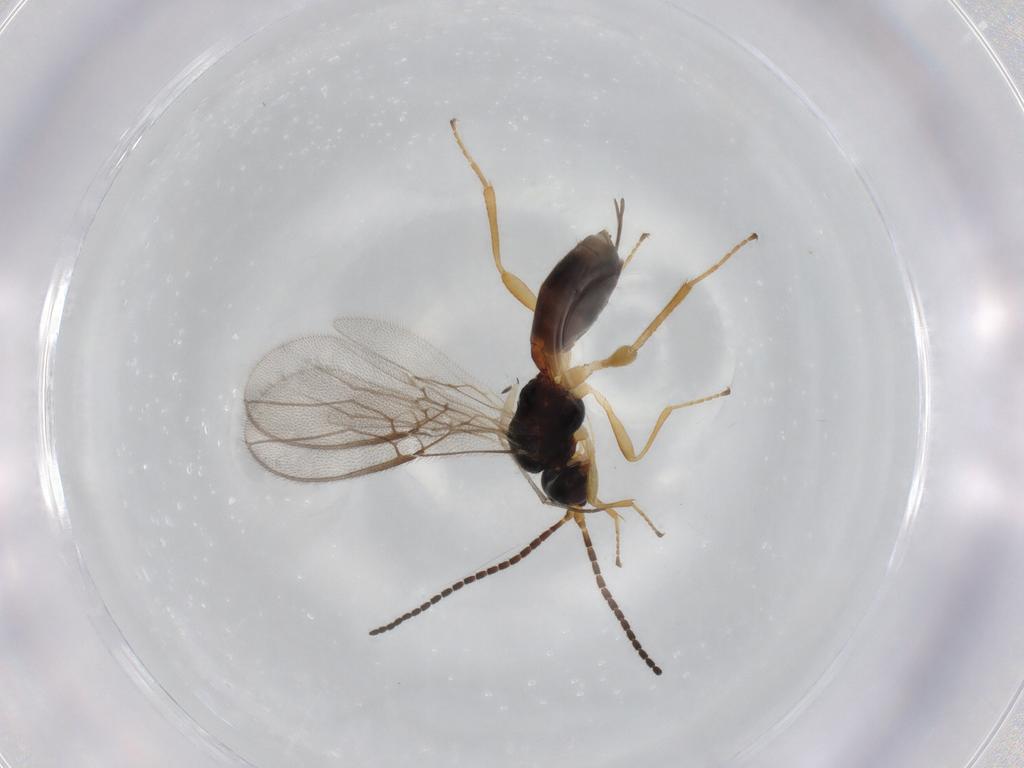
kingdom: Animalia
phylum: Arthropoda
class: Insecta
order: Hymenoptera
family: Braconidae
